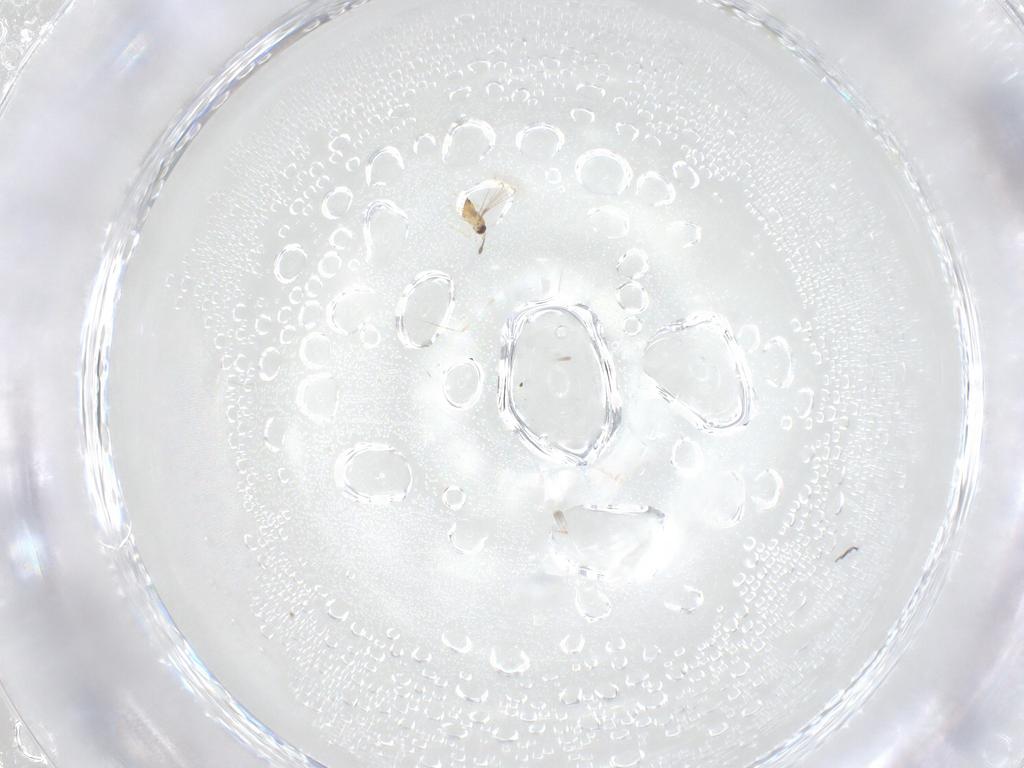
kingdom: Animalia
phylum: Arthropoda
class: Insecta
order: Hymenoptera
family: Mymaridae
